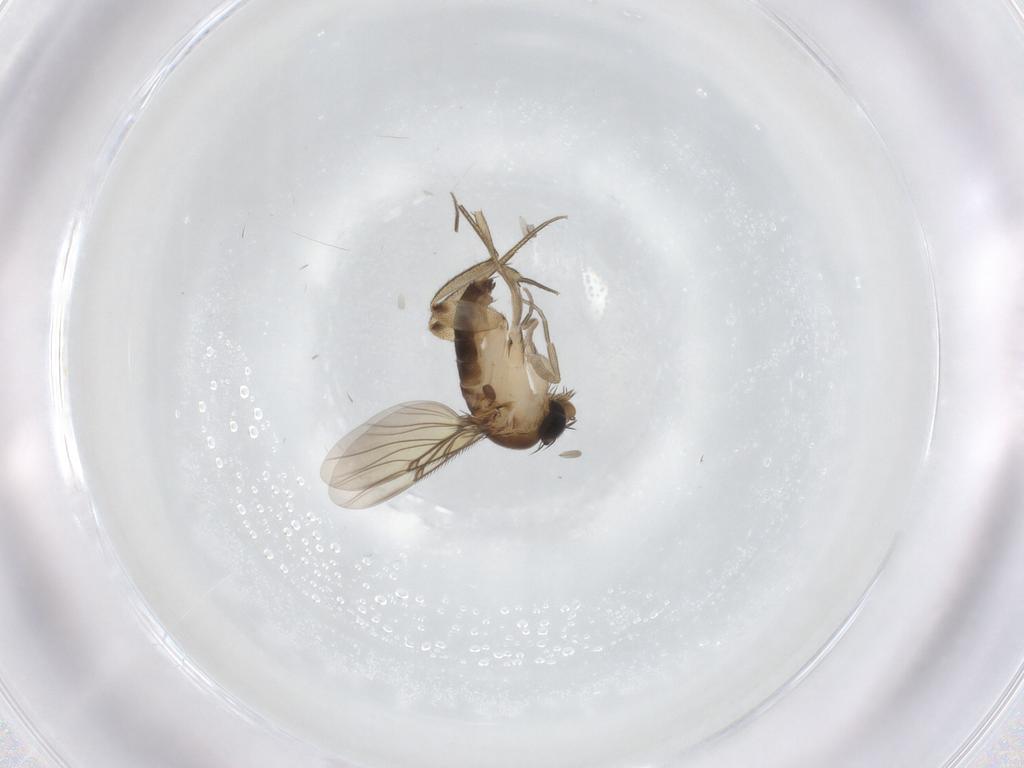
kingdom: Animalia
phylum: Arthropoda
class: Insecta
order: Diptera
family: Phoridae
